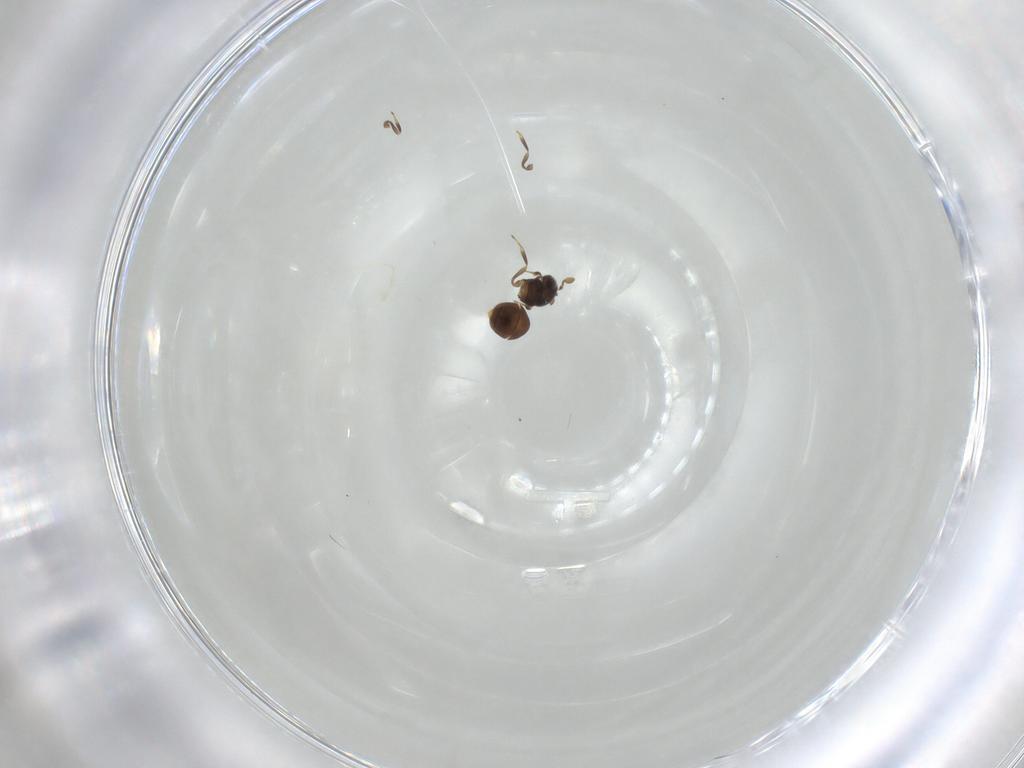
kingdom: Animalia
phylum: Arthropoda
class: Insecta
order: Hymenoptera
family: Scelionidae
